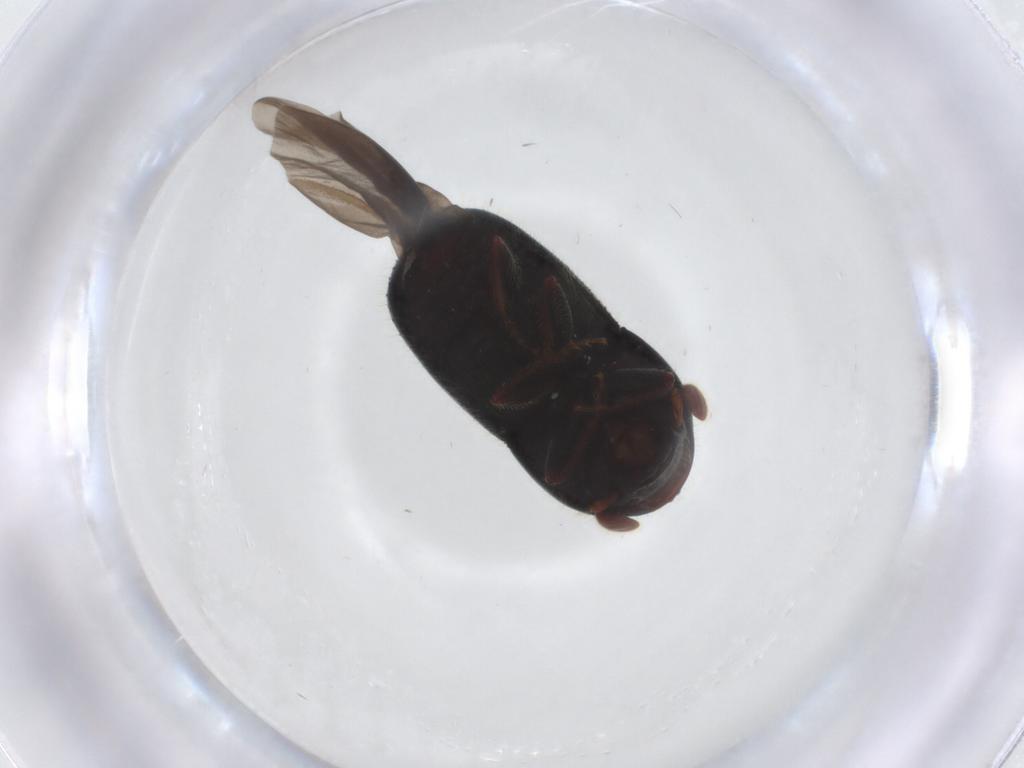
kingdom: Animalia
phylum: Arthropoda
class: Insecta
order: Coleoptera
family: Curculionidae
